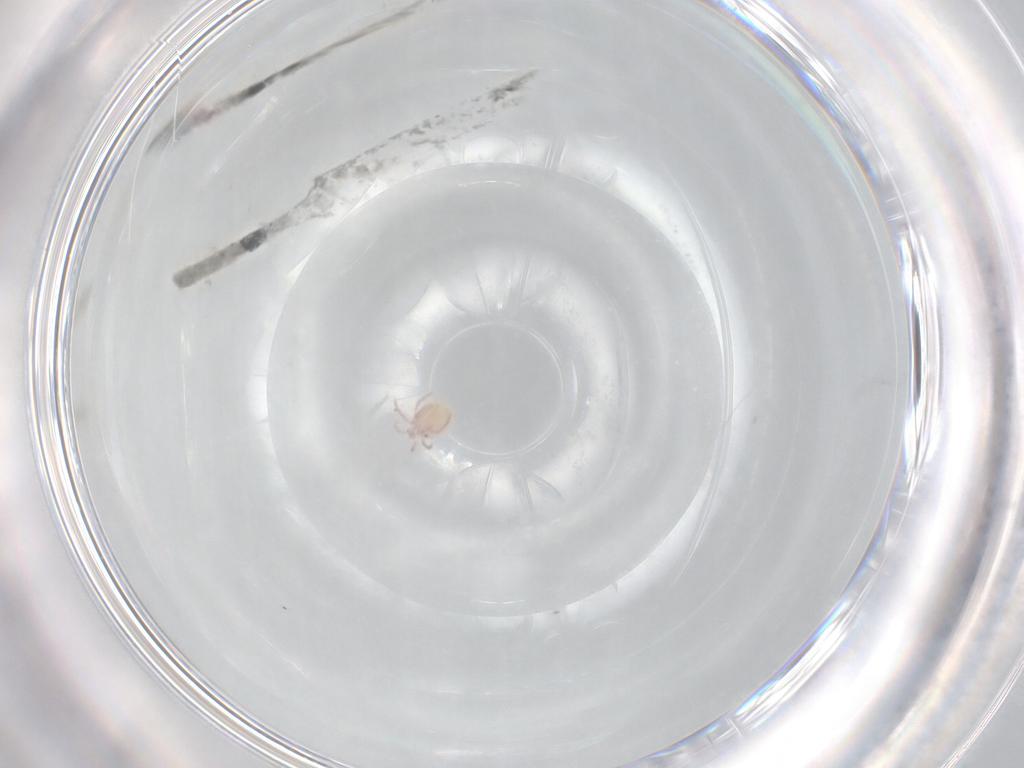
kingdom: Animalia
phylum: Arthropoda
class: Arachnida
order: Trombidiformes
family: Lebertiidae
